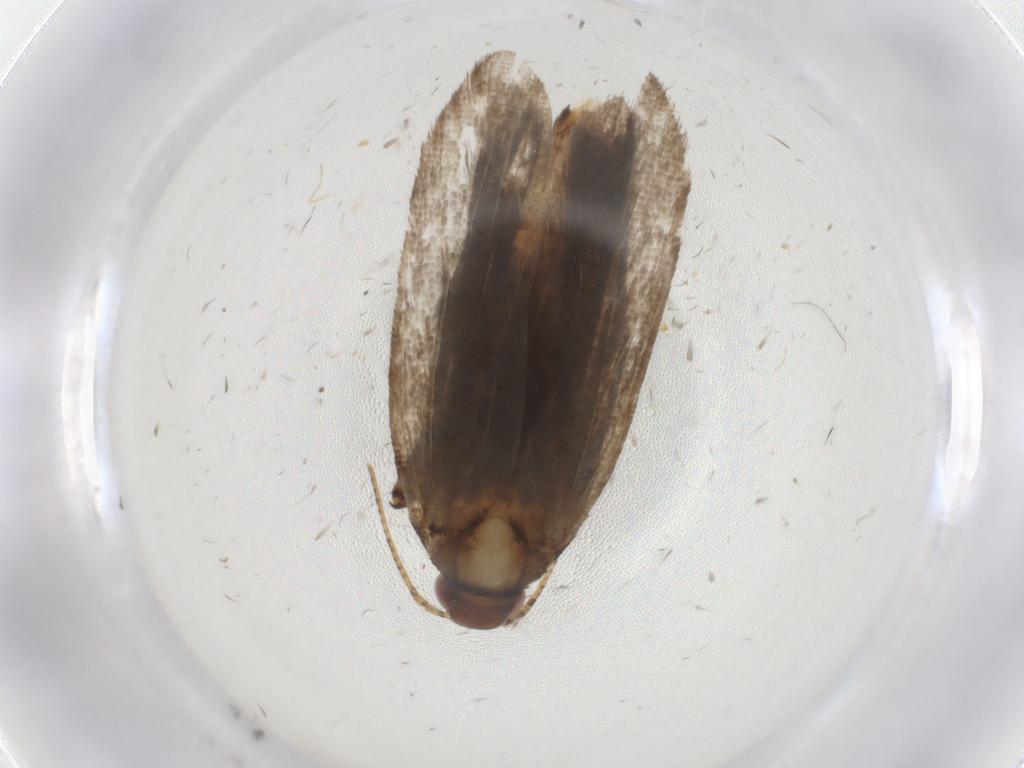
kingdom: Animalia
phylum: Arthropoda
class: Insecta
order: Lepidoptera
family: Gelechiidae
